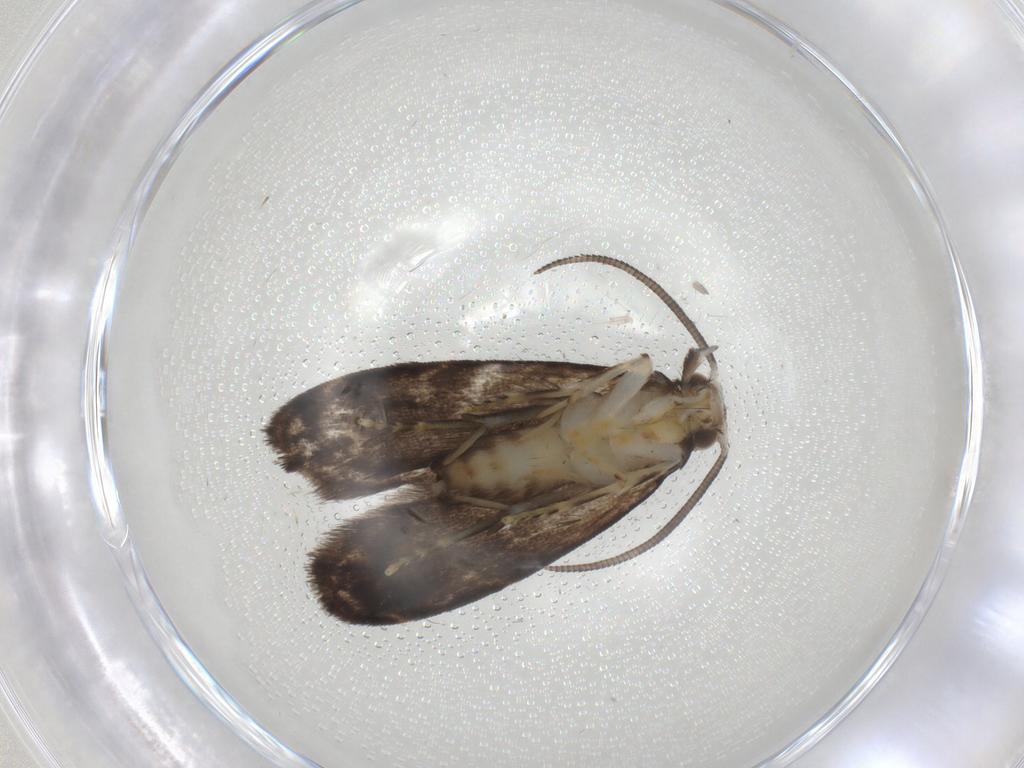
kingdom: Animalia
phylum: Arthropoda
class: Insecta
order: Lepidoptera
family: Dryadaulidae
